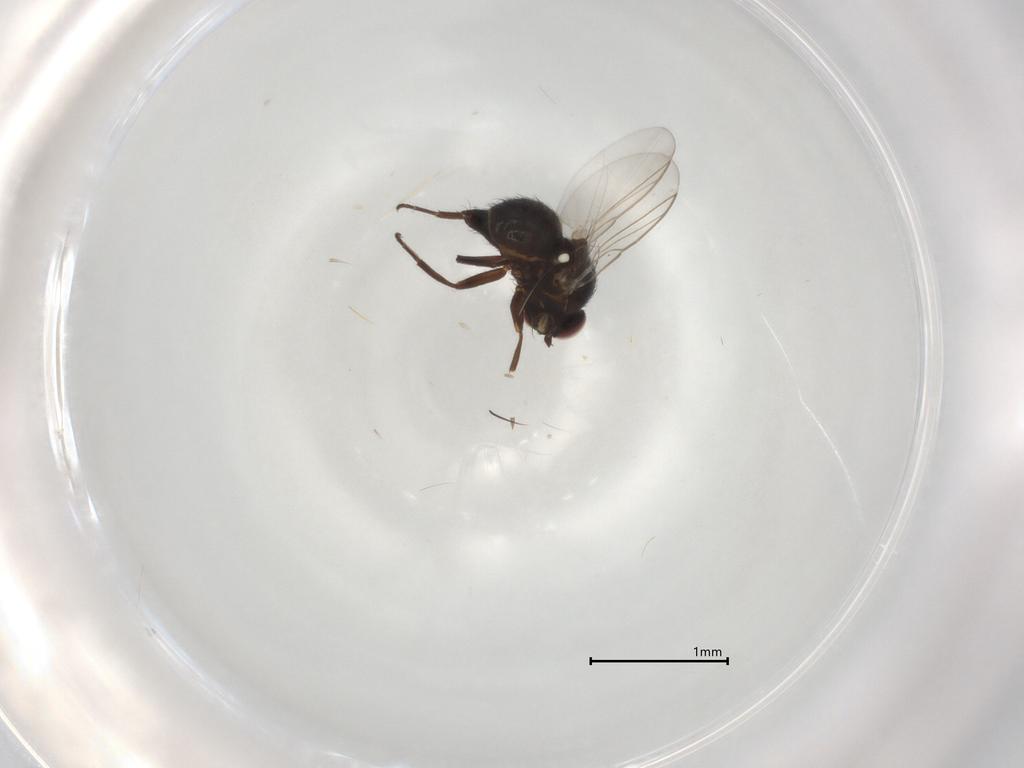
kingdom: Animalia
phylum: Arthropoda
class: Insecta
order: Diptera
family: Agromyzidae
